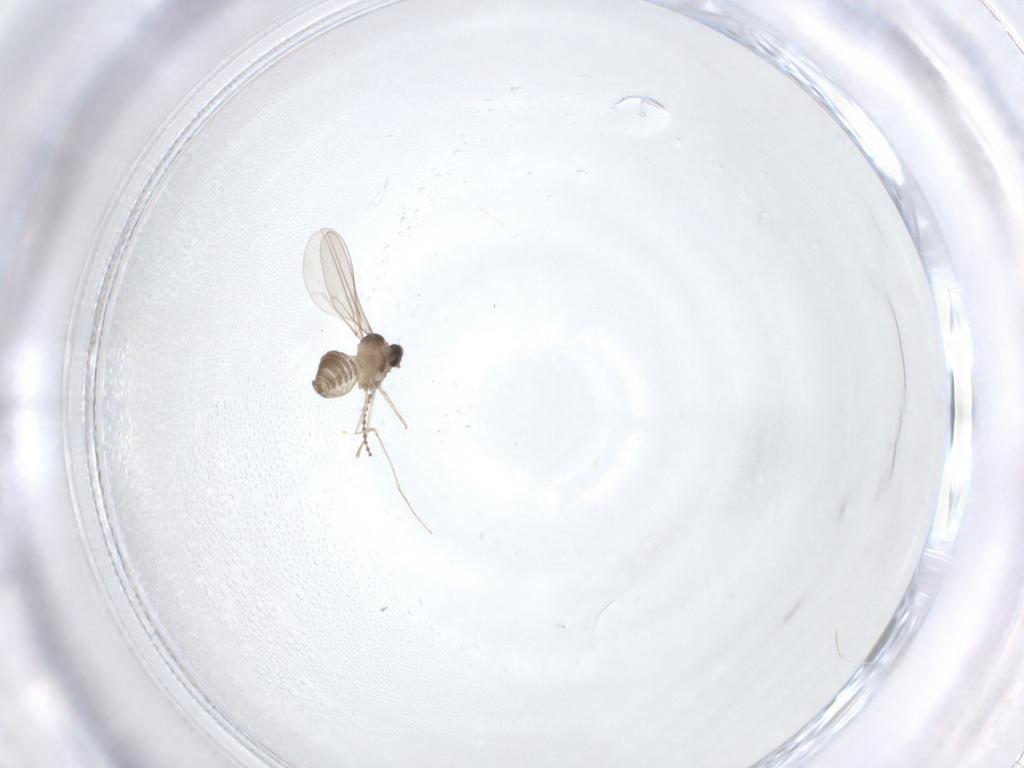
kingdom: Animalia
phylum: Arthropoda
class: Insecta
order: Diptera
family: Cecidomyiidae
